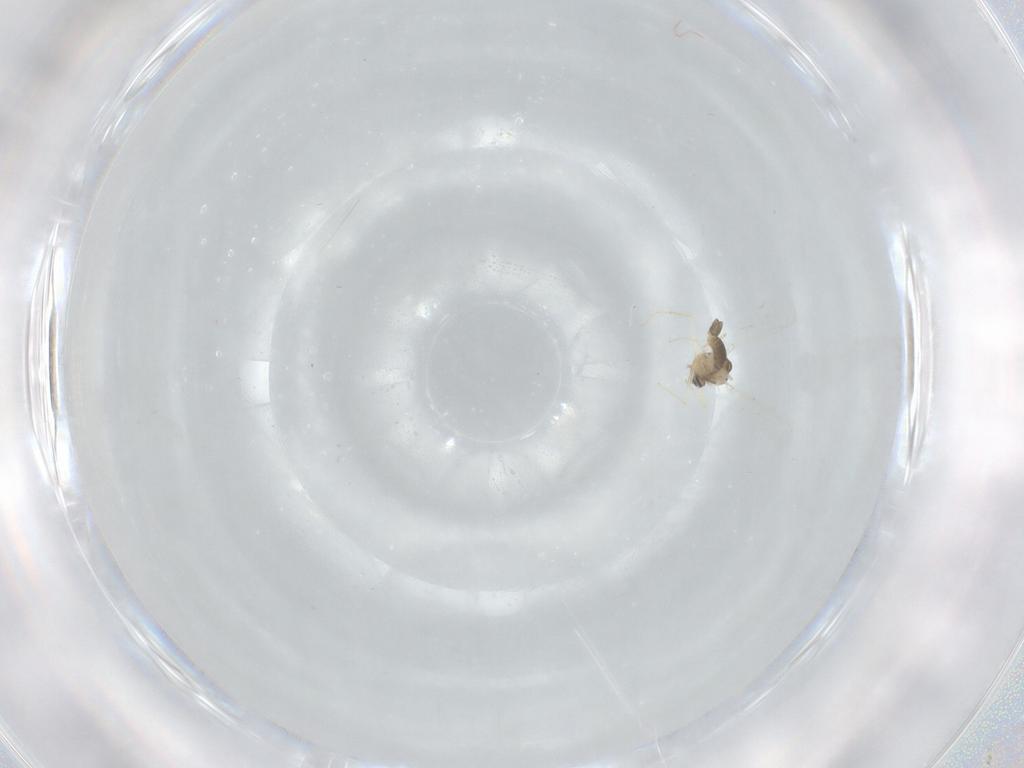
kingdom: Animalia
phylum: Arthropoda
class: Insecta
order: Diptera
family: Chironomidae
